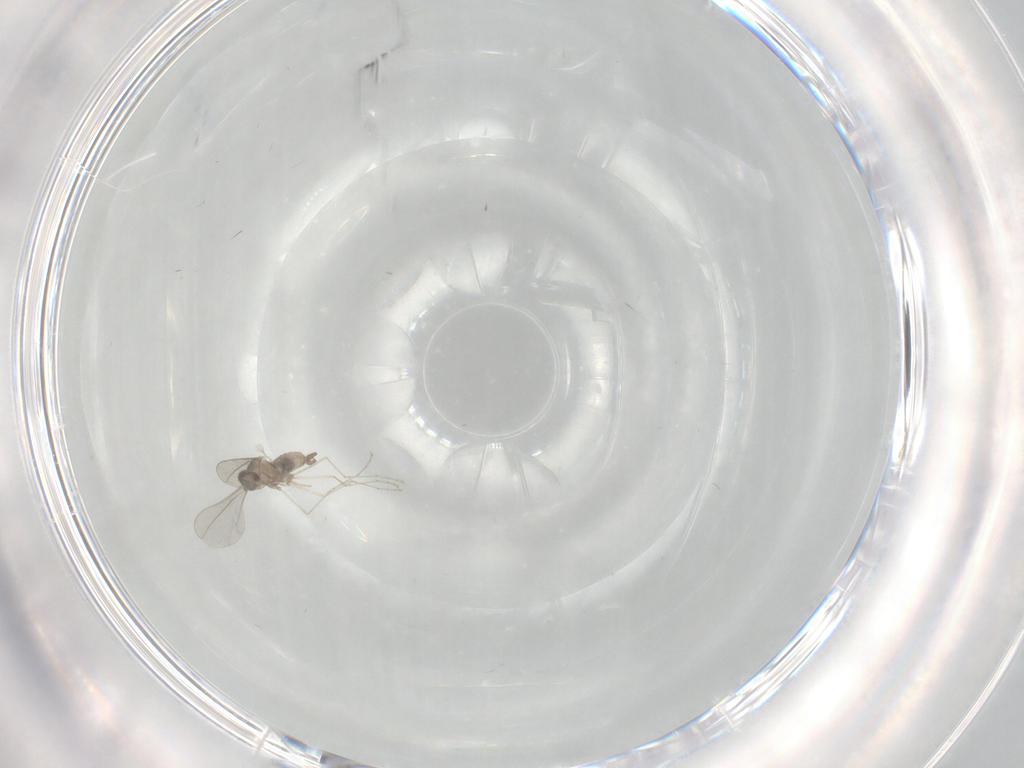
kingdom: Animalia
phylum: Arthropoda
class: Insecta
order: Diptera
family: Cecidomyiidae
